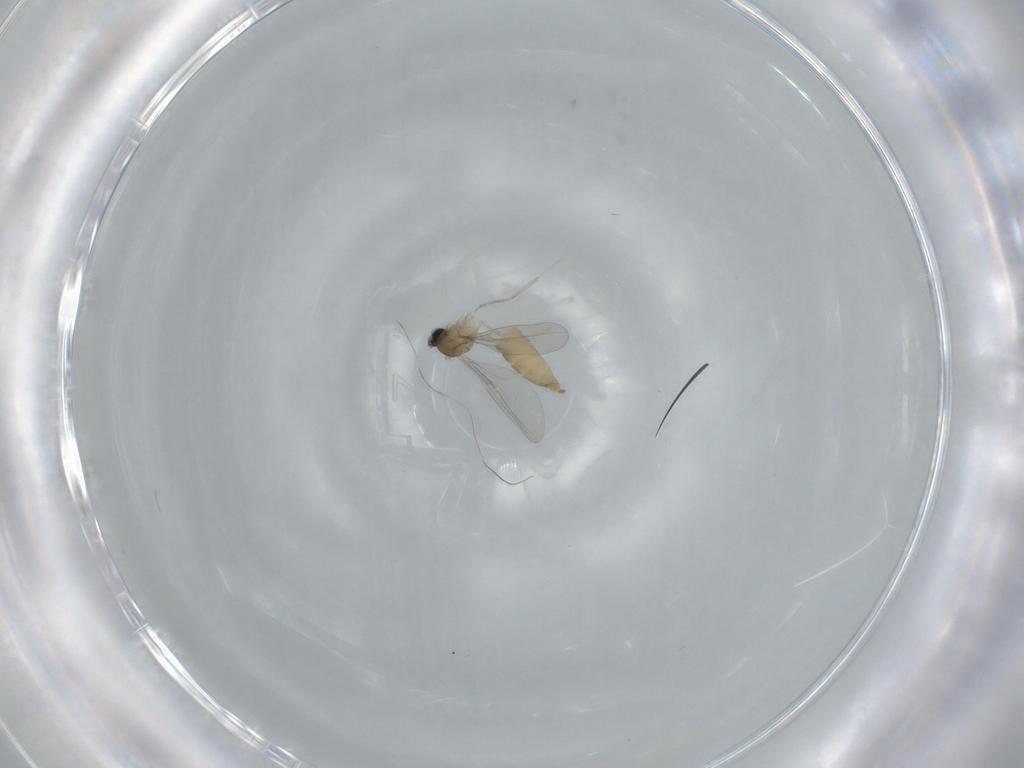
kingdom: Animalia
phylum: Arthropoda
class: Insecta
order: Diptera
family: Cecidomyiidae
